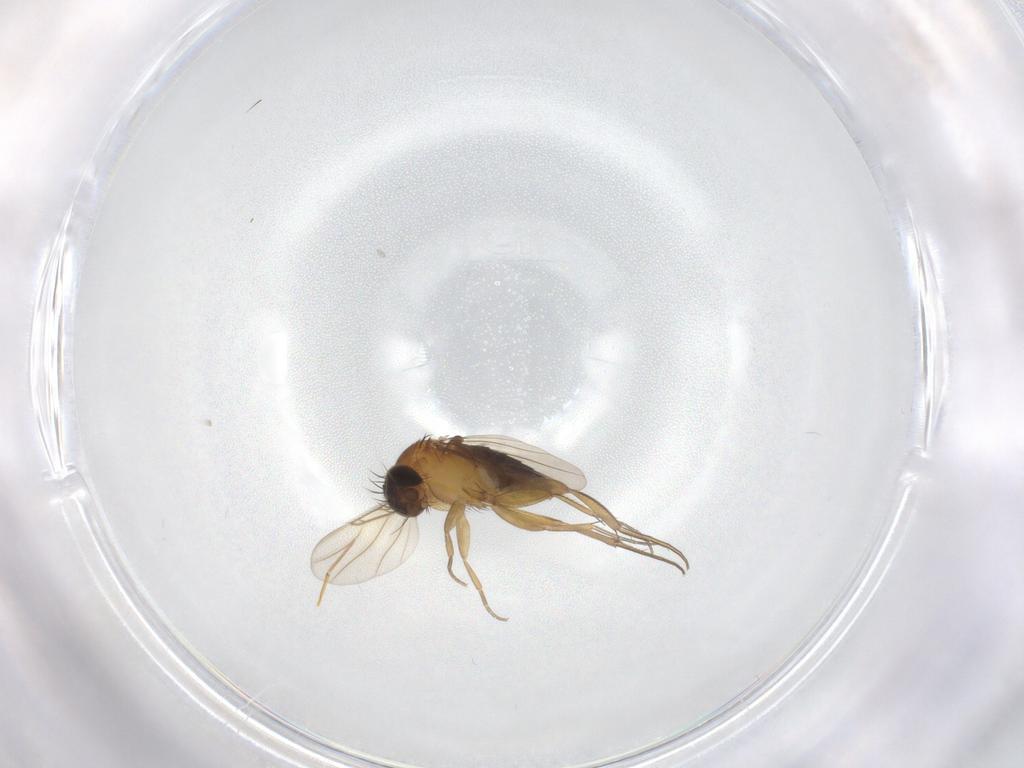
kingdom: Animalia
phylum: Arthropoda
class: Insecta
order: Diptera
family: Phoridae
